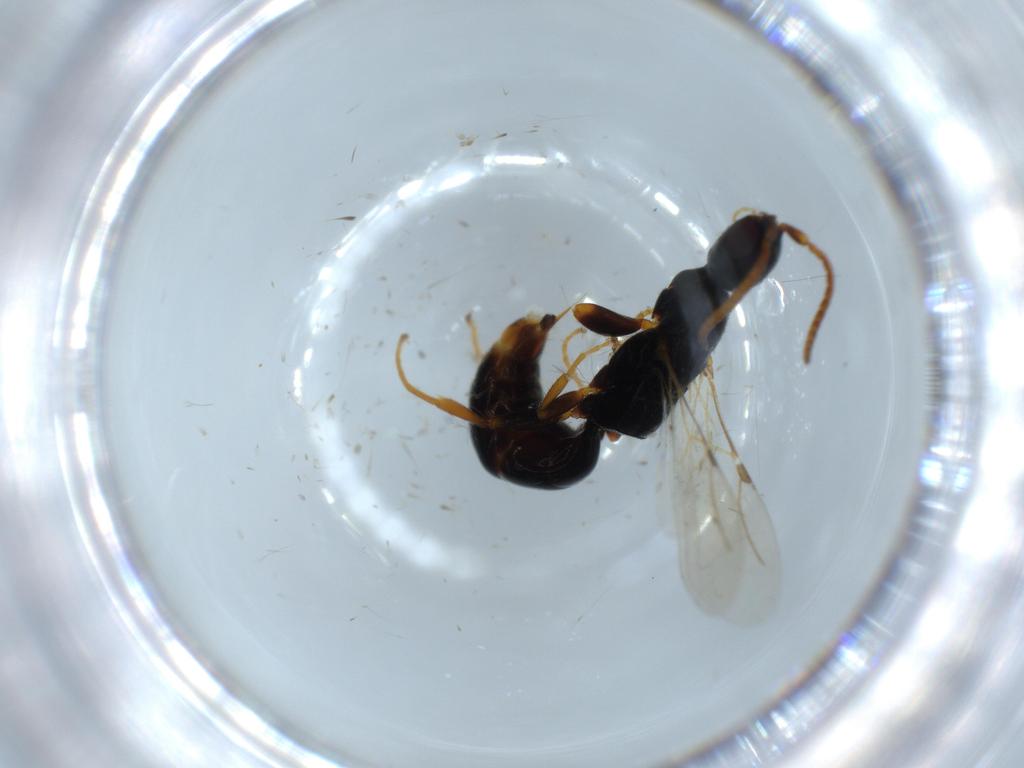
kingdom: Animalia
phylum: Arthropoda
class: Insecta
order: Hymenoptera
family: Bethylidae
